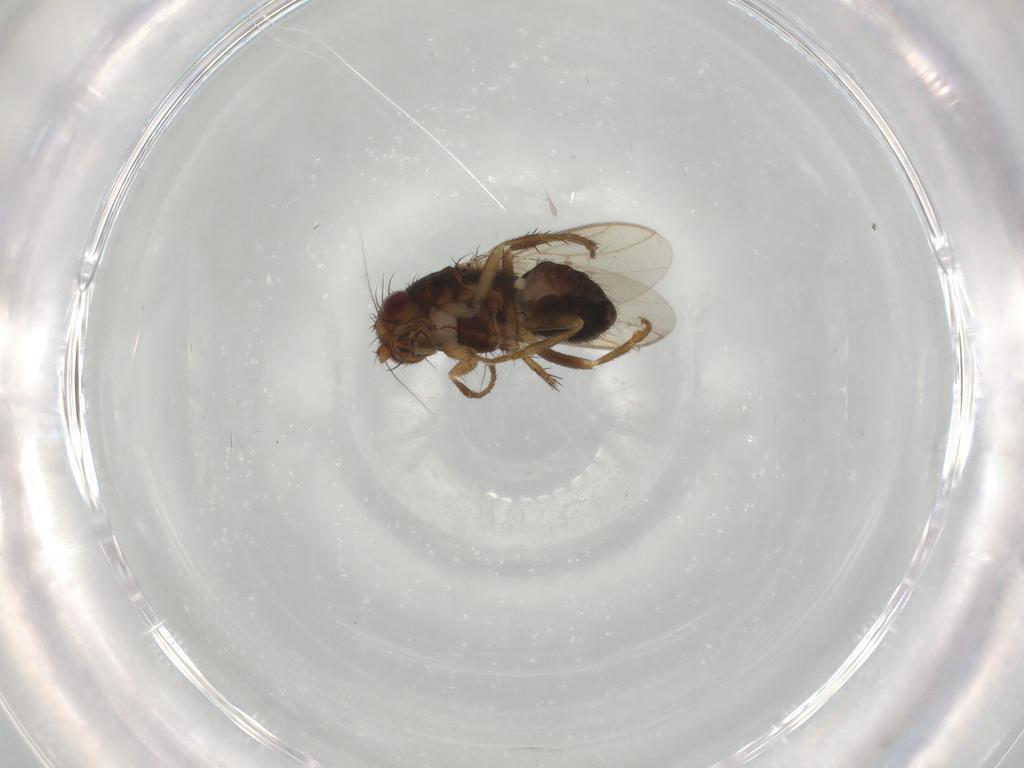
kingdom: Animalia
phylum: Arthropoda
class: Insecta
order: Diptera
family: Sphaeroceridae
